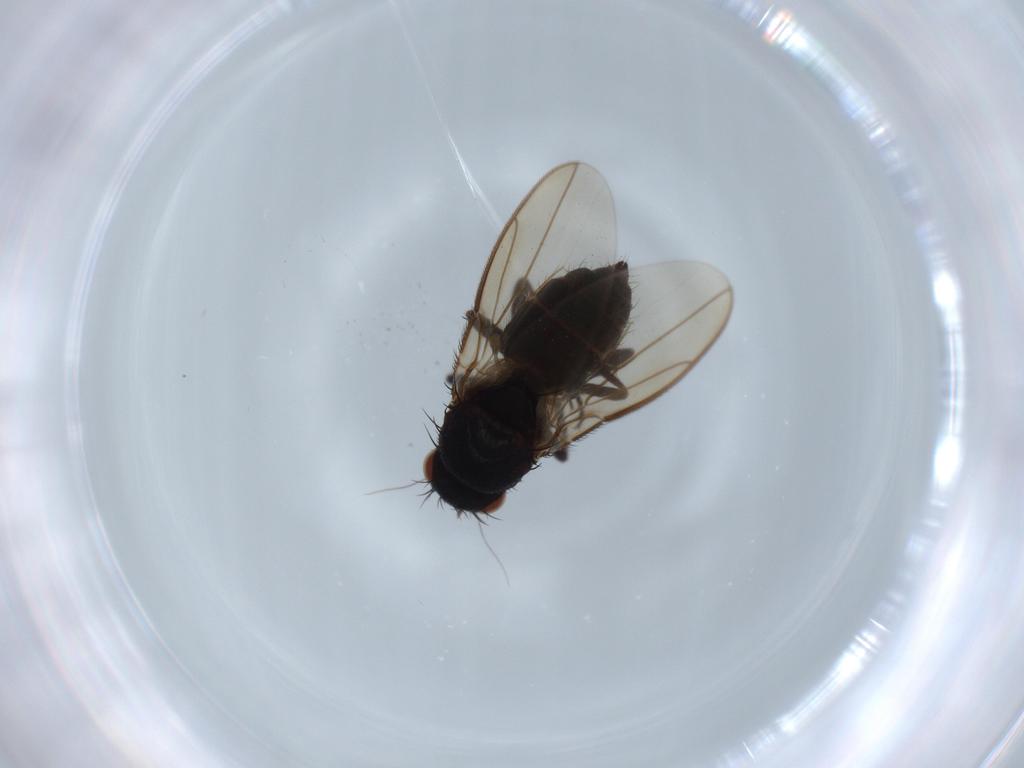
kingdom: Animalia
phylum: Arthropoda
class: Insecta
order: Diptera
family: Sphaeroceridae
